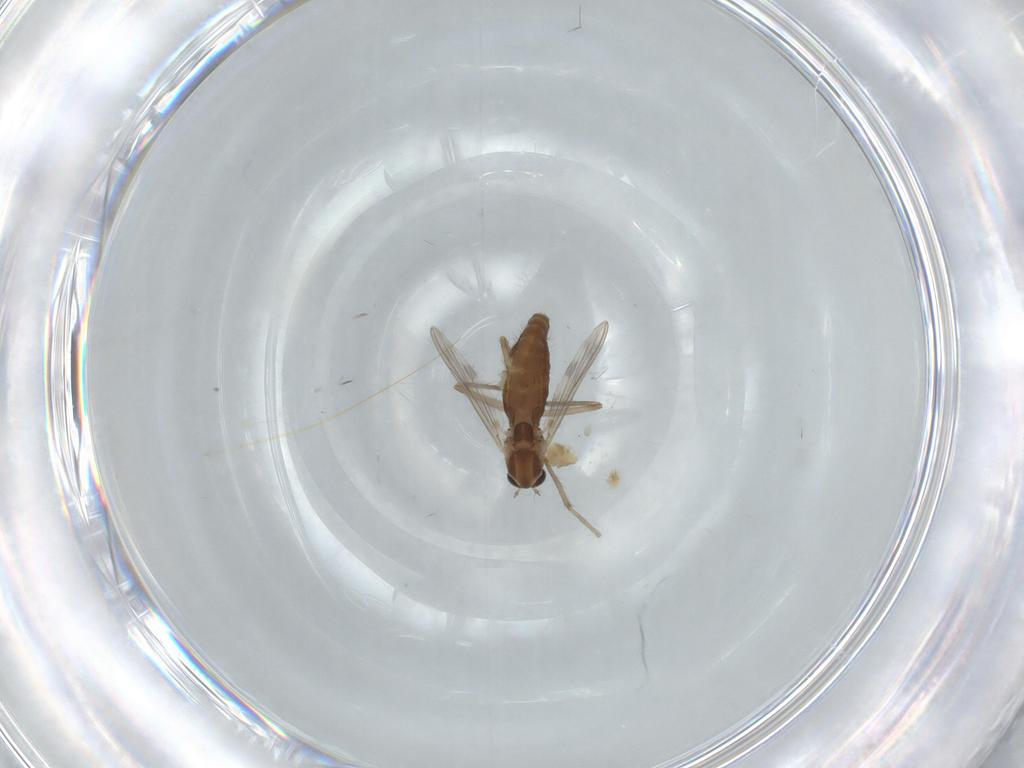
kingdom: Animalia
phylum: Arthropoda
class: Insecta
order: Diptera
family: Chironomidae
